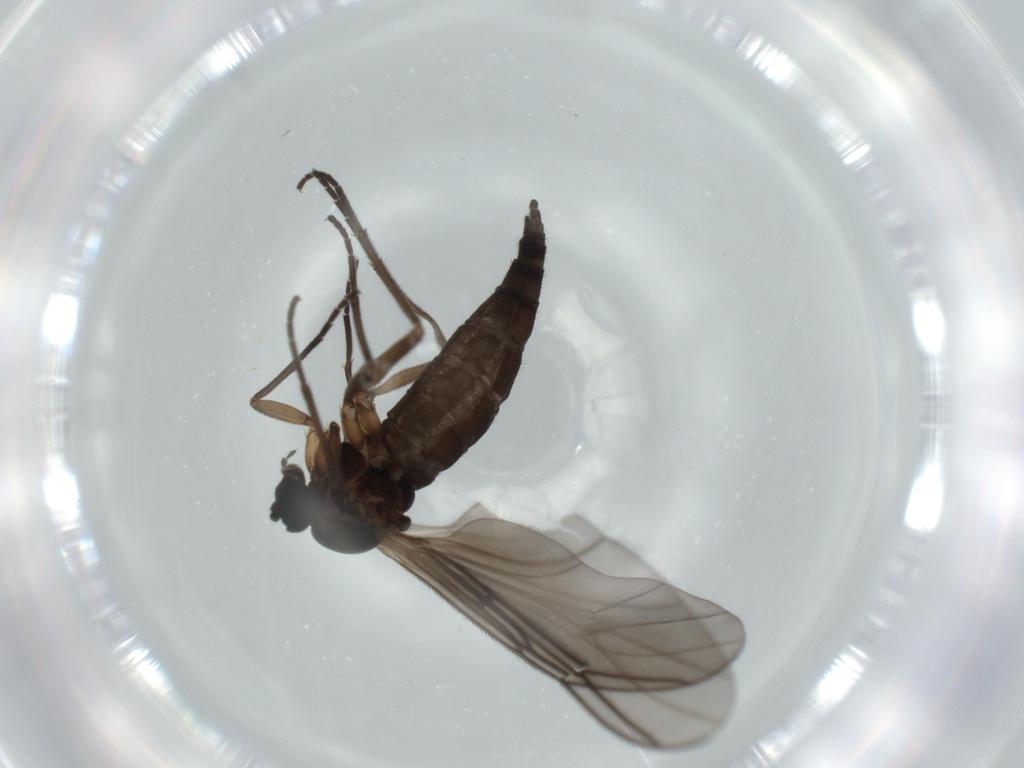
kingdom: Animalia
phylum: Arthropoda
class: Insecta
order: Diptera
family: Sciaridae
